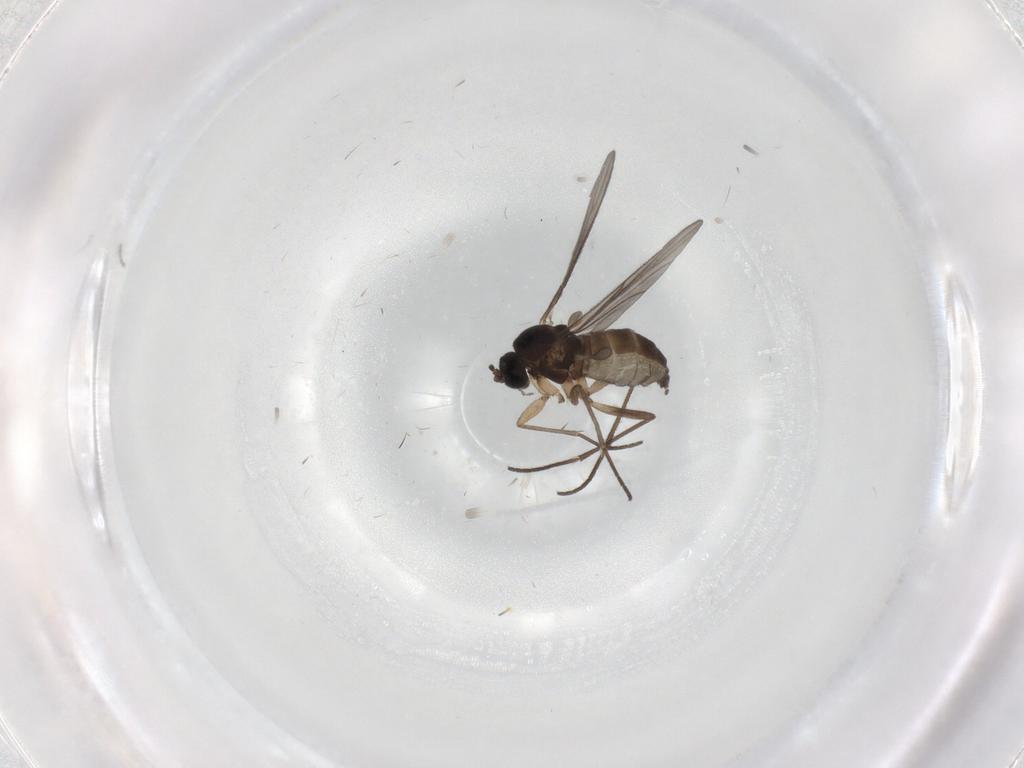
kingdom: Animalia
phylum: Arthropoda
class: Insecta
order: Diptera
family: Sciaridae
